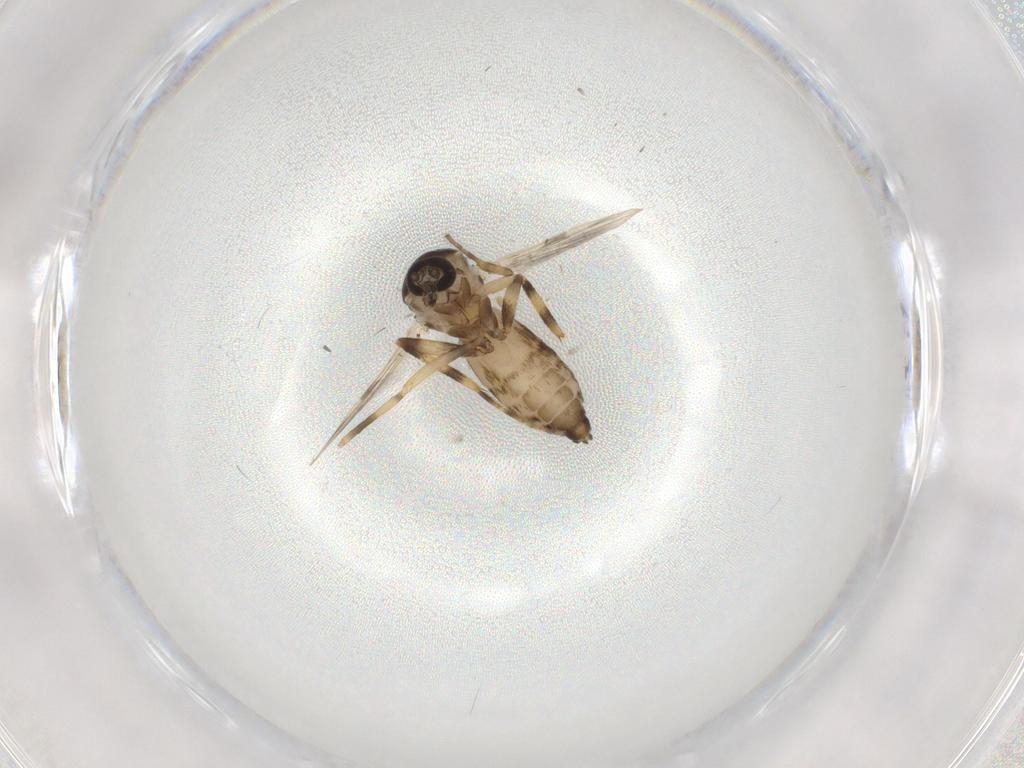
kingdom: Animalia
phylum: Arthropoda
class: Insecta
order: Diptera
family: Ceratopogonidae
